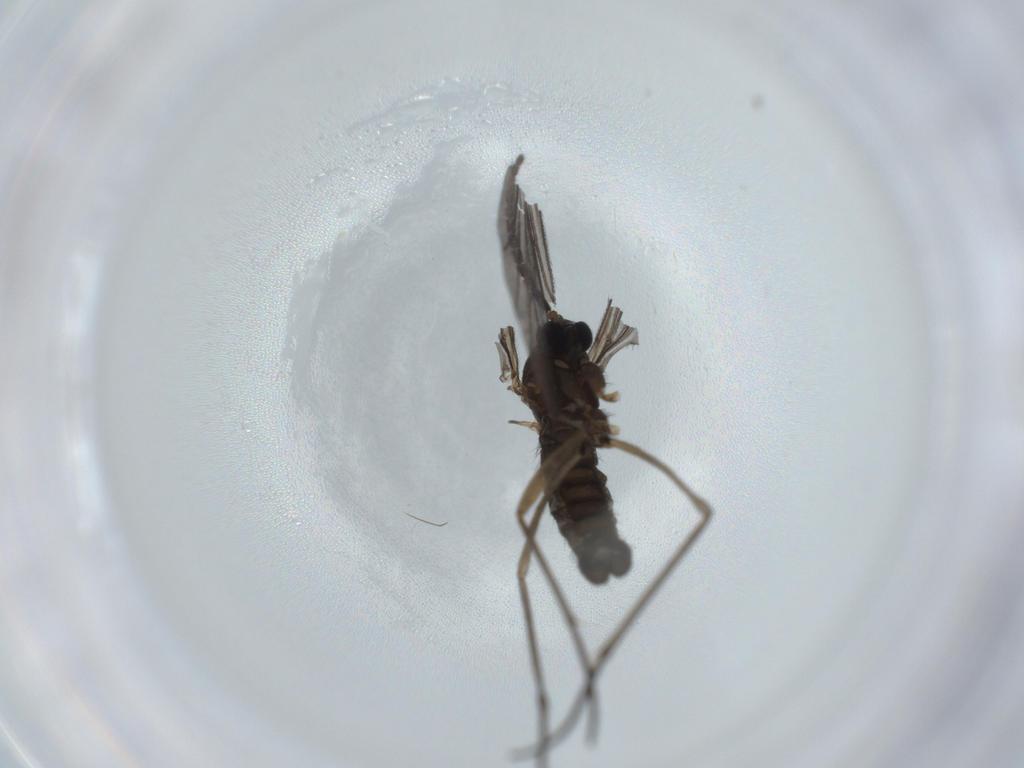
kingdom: Animalia
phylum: Arthropoda
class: Insecta
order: Diptera
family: Sciaridae
